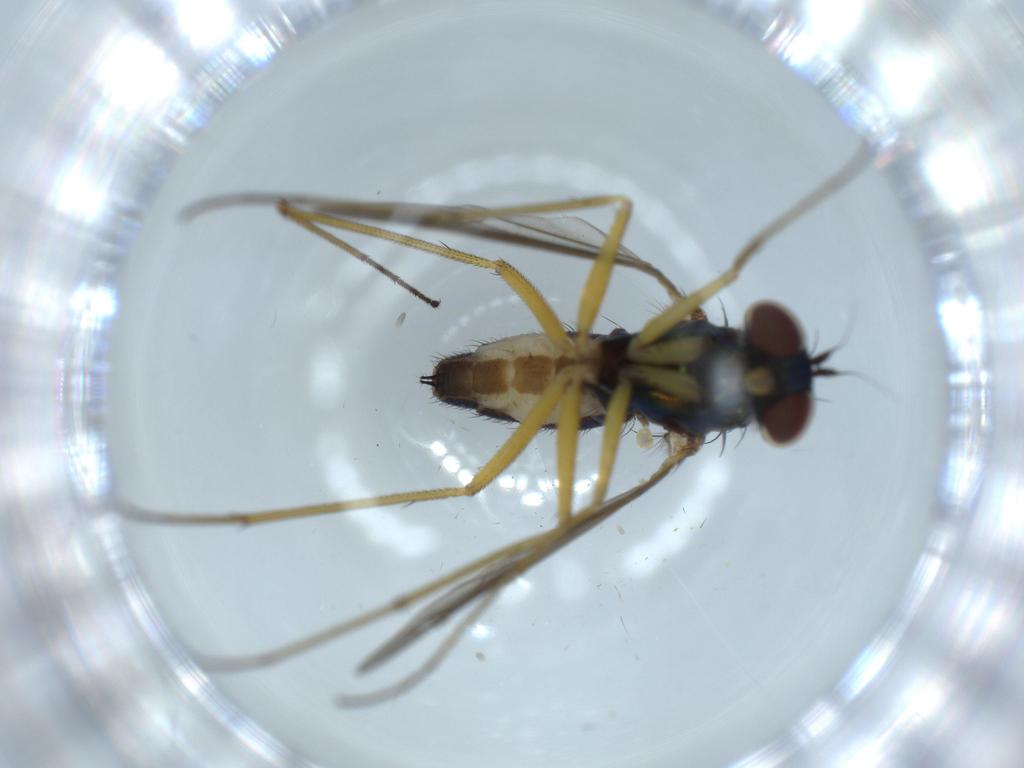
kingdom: Animalia
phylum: Arthropoda
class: Insecta
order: Diptera
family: Dolichopodidae
